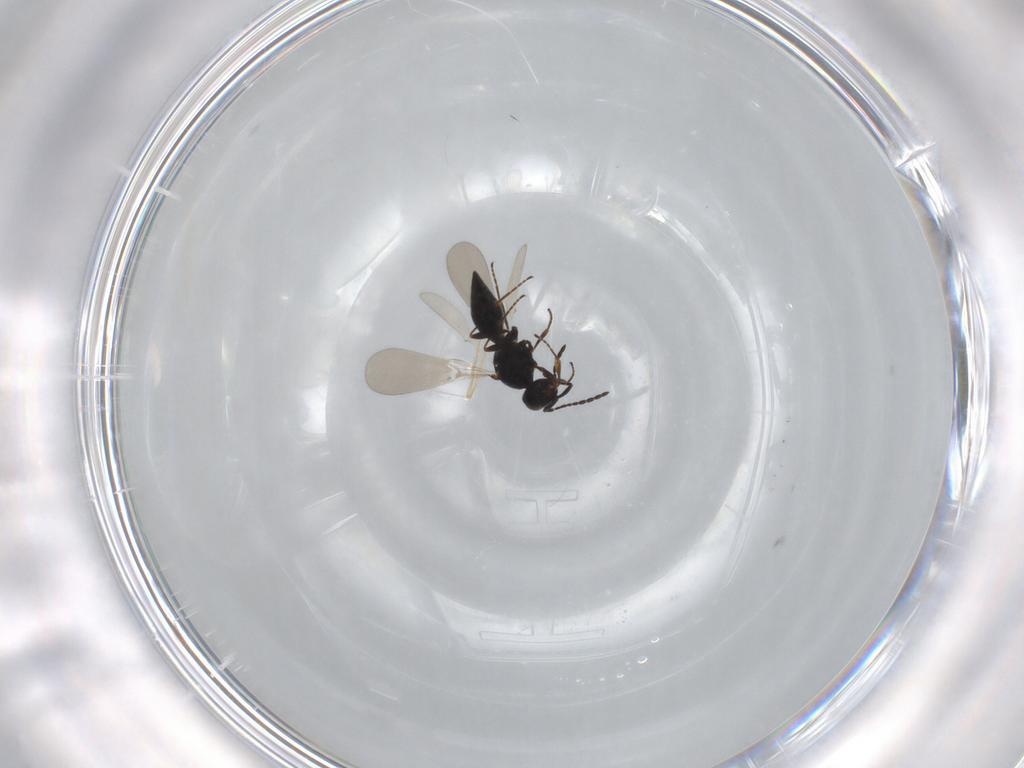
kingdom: Animalia
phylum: Arthropoda
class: Insecta
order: Hymenoptera
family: Platygastridae
